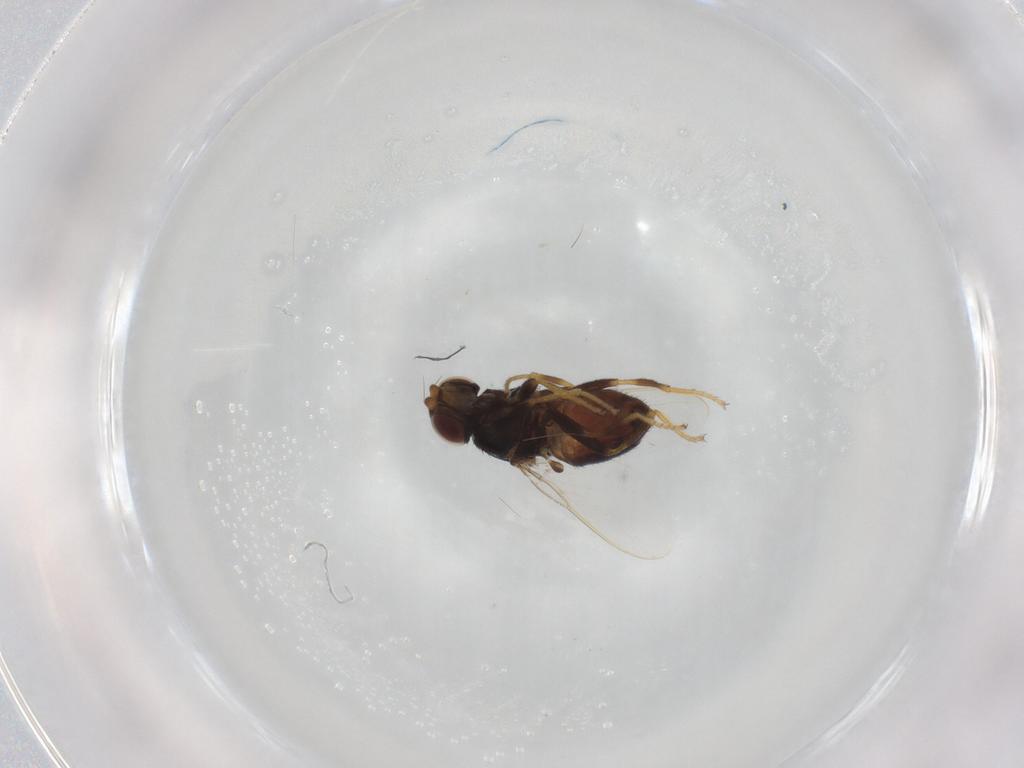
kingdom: Animalia
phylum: Arthropoda
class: Insecta
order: Diptera
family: Chloropidae
